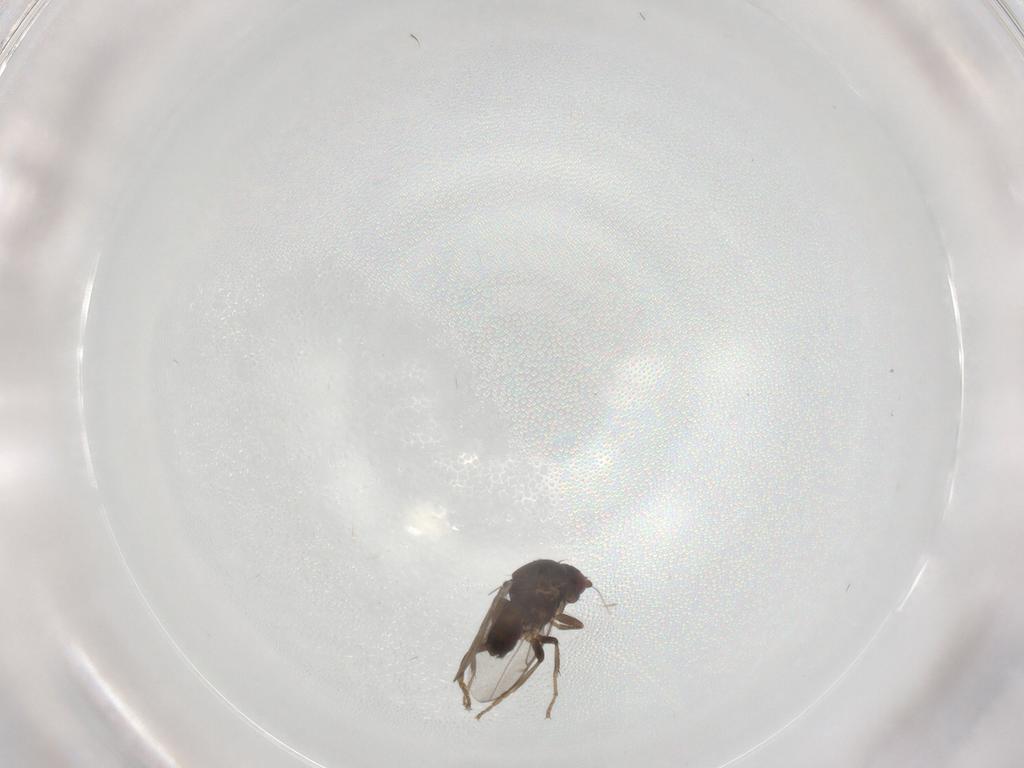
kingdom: Animalia
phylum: Arthropoda
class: Insecta
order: Diptera
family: Sphaeroceridae
